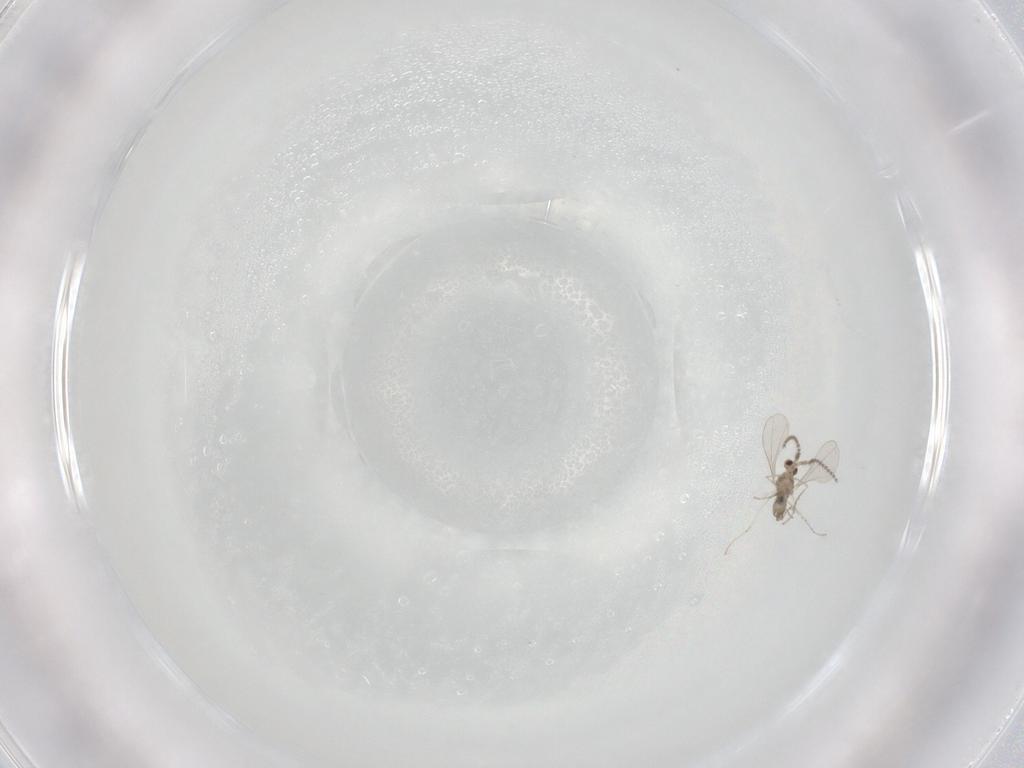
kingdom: Animalia
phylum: Arthropoda
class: Insecta
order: Diptera
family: Cecidomyiidae
